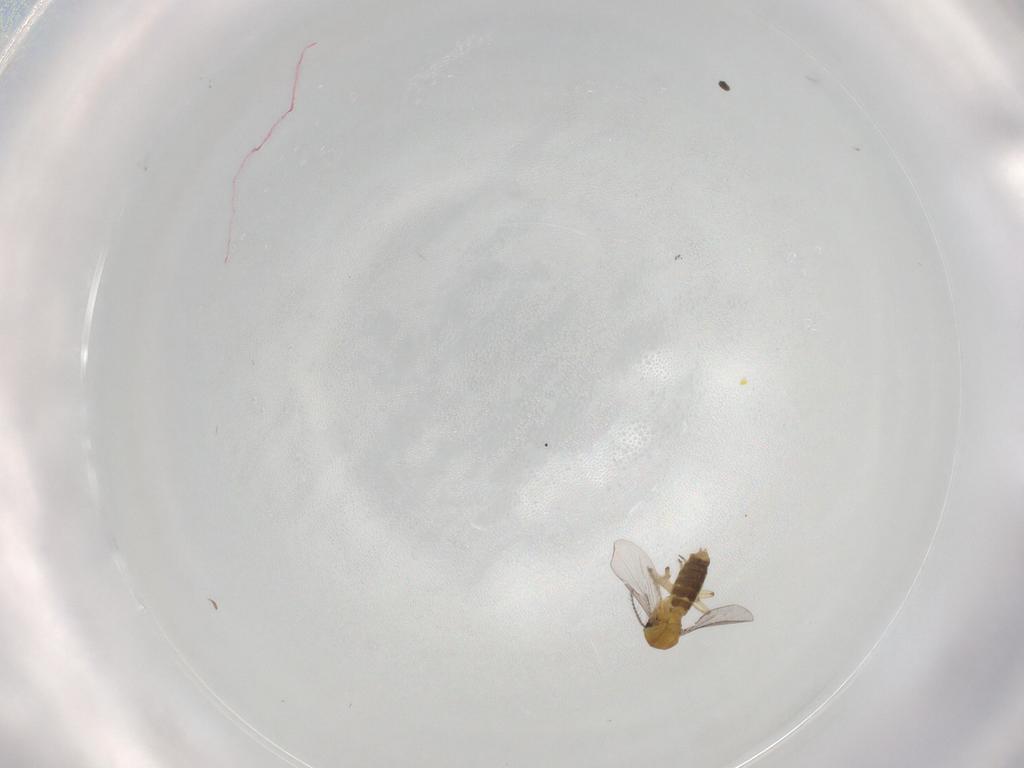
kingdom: Animalia
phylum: Arthropoda
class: Insecta
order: Diptera
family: Ceratopogonidae
